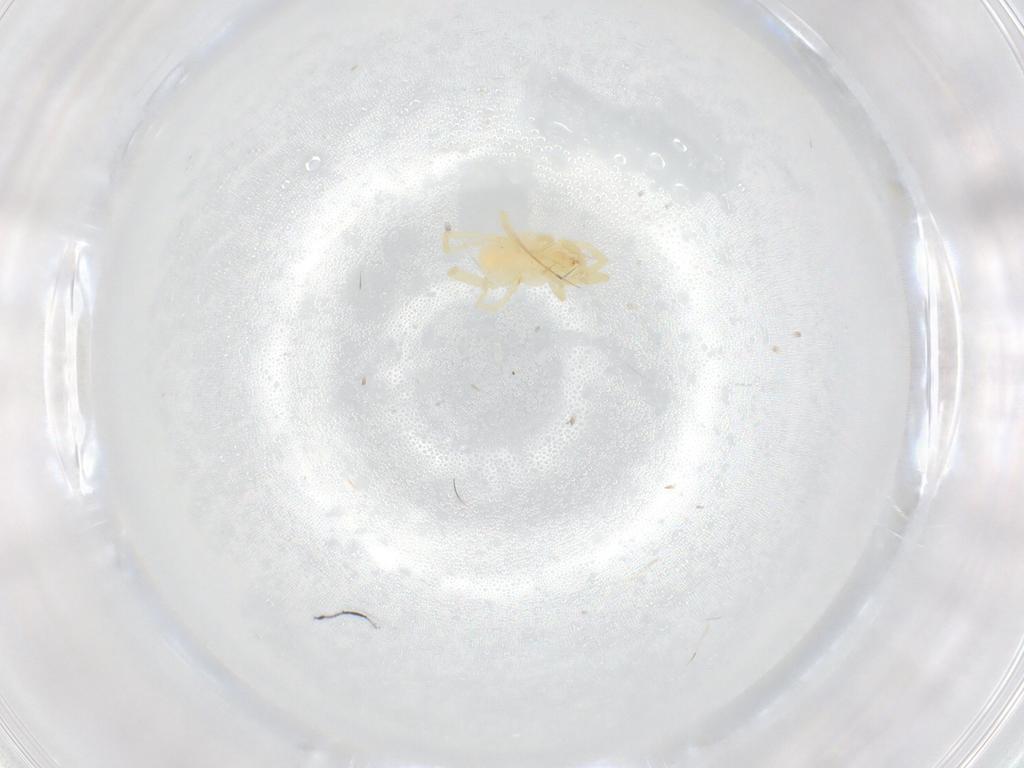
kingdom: Animalia
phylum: Arthropoda
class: Arachnida
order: Trombidiformes
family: Erythraeidae
